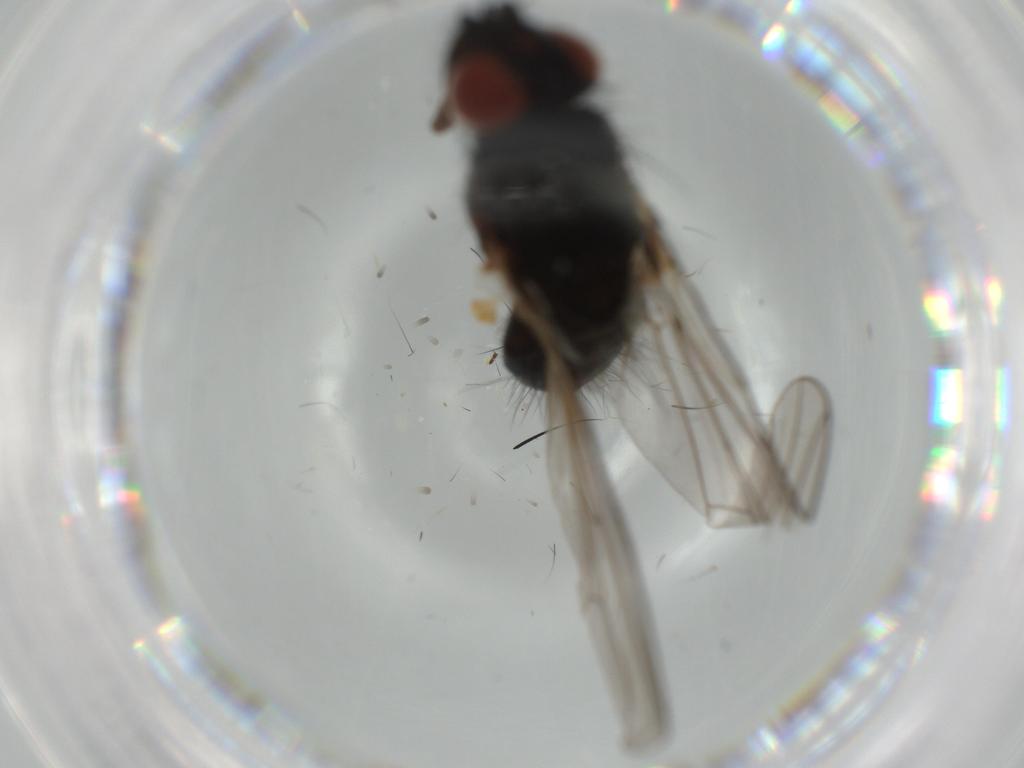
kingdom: Animalia
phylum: Arthropoda
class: Insecta
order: Diptera
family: Anthomyiidae
